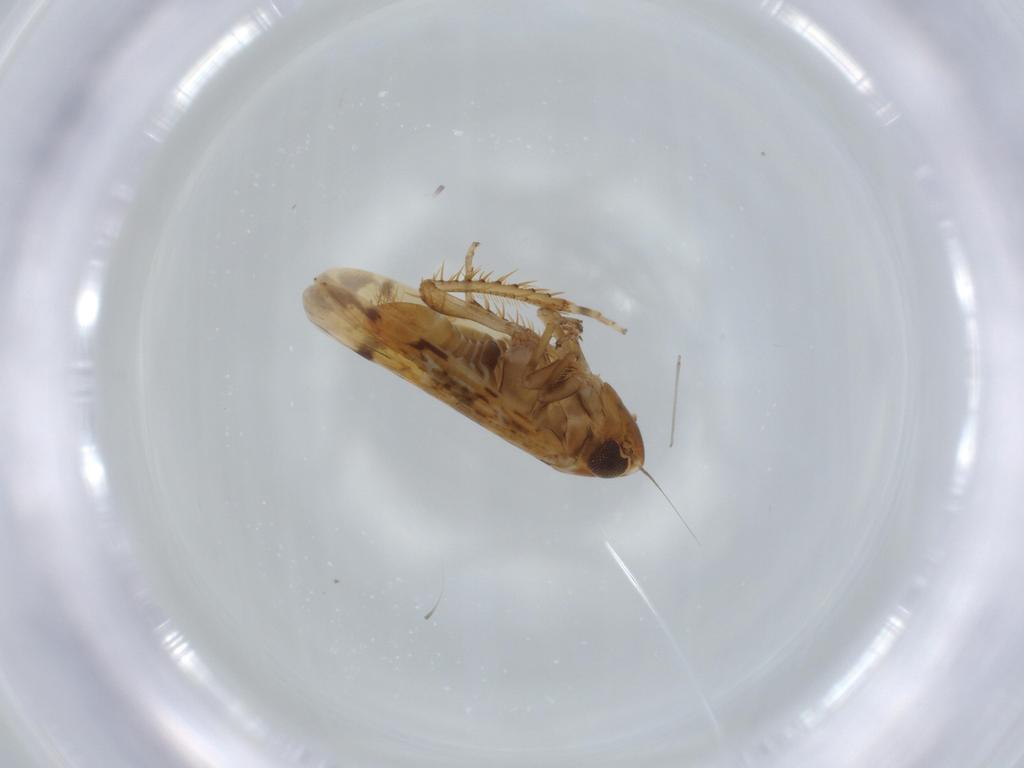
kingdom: Animalia
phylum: Arthropoda
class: Insecta
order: Hemiptera
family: Cicadellidae
